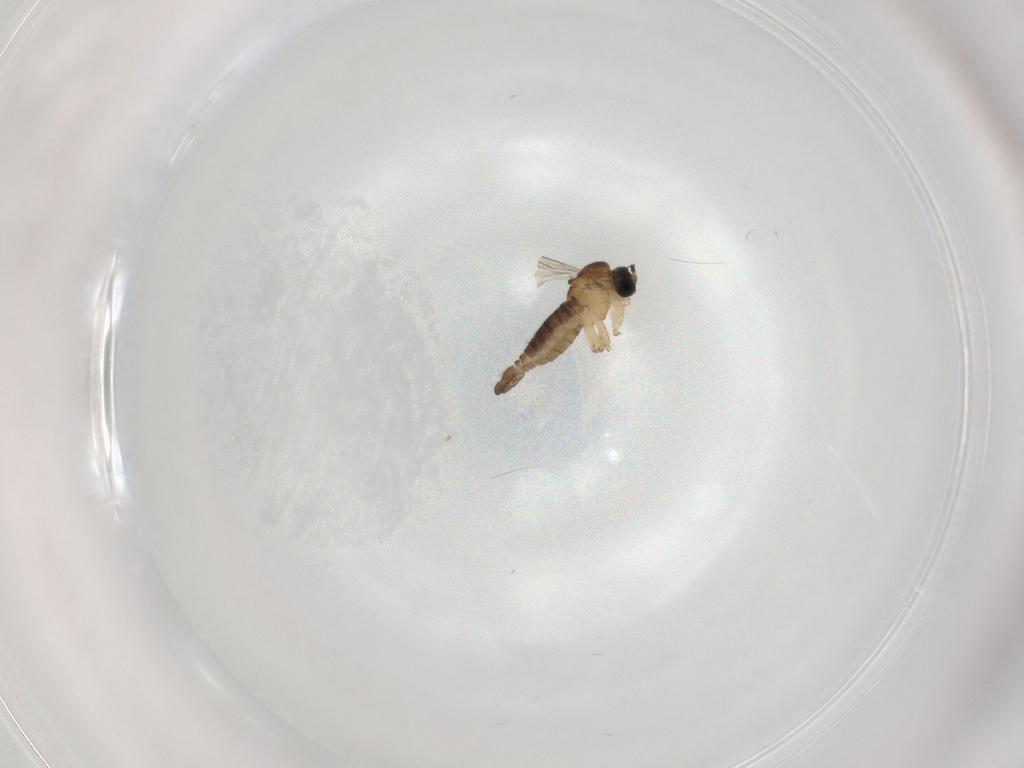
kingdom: Animalia
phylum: Arthropoda
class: Insecta
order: Diptera
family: Sciaridae
